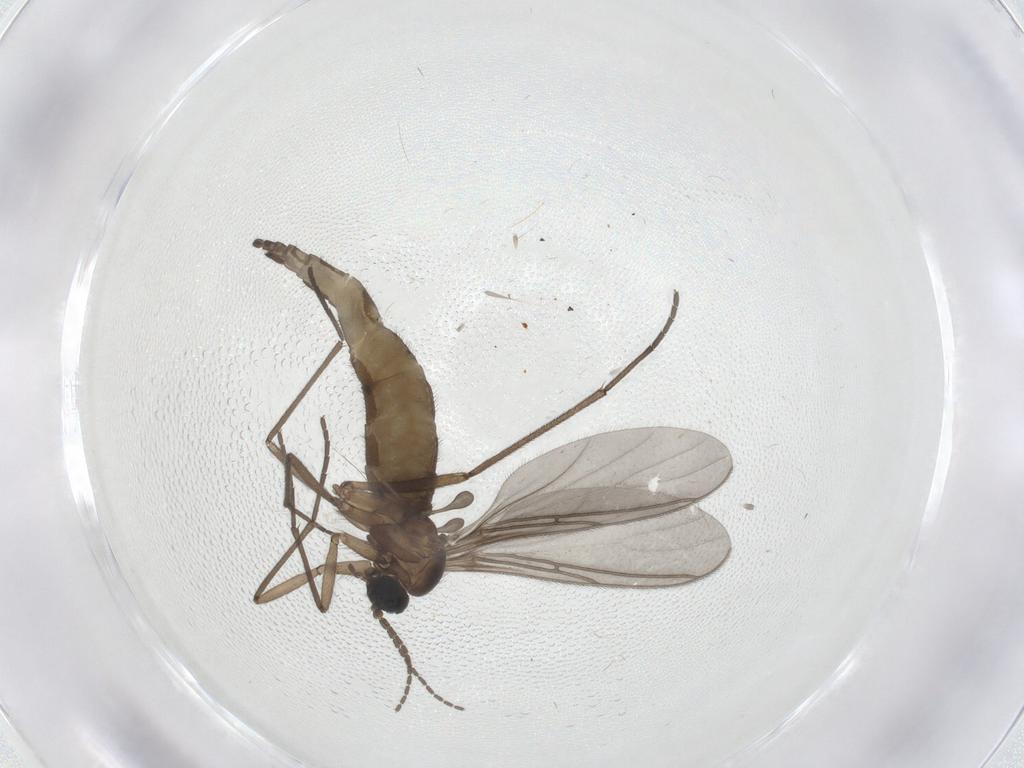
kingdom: Animalia
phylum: Arthropoda
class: Insecta
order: Diptera
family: Sciaridae
